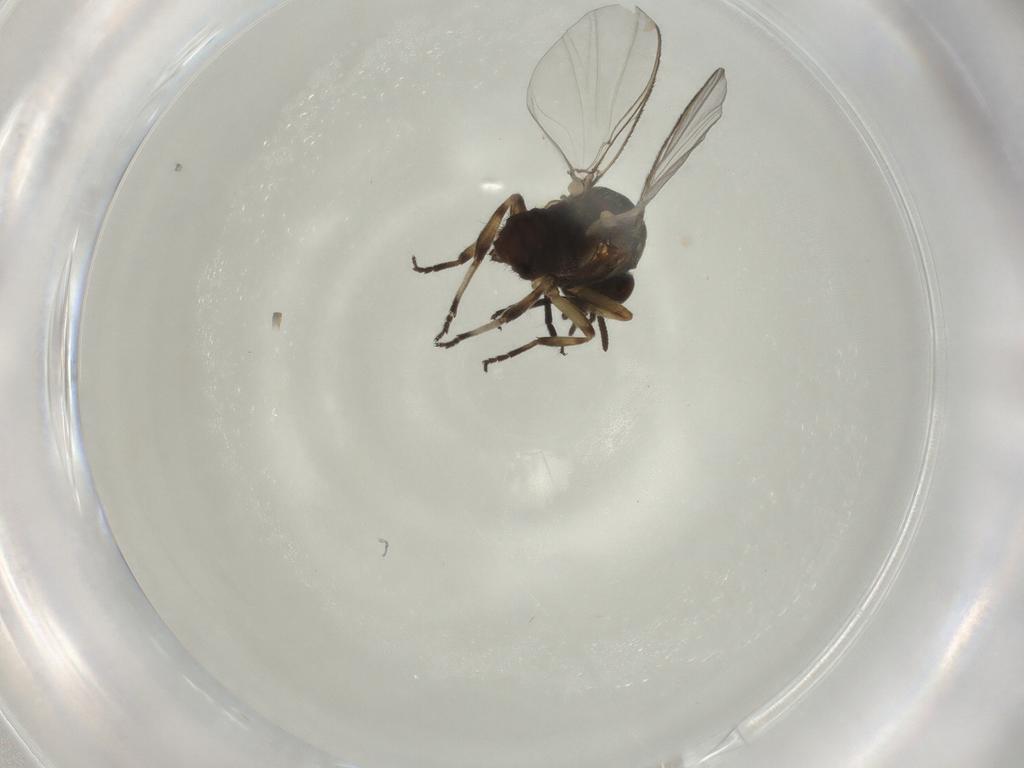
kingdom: Animalia
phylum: Arthropoda
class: Insecta
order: Diptera
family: Simuliidae
